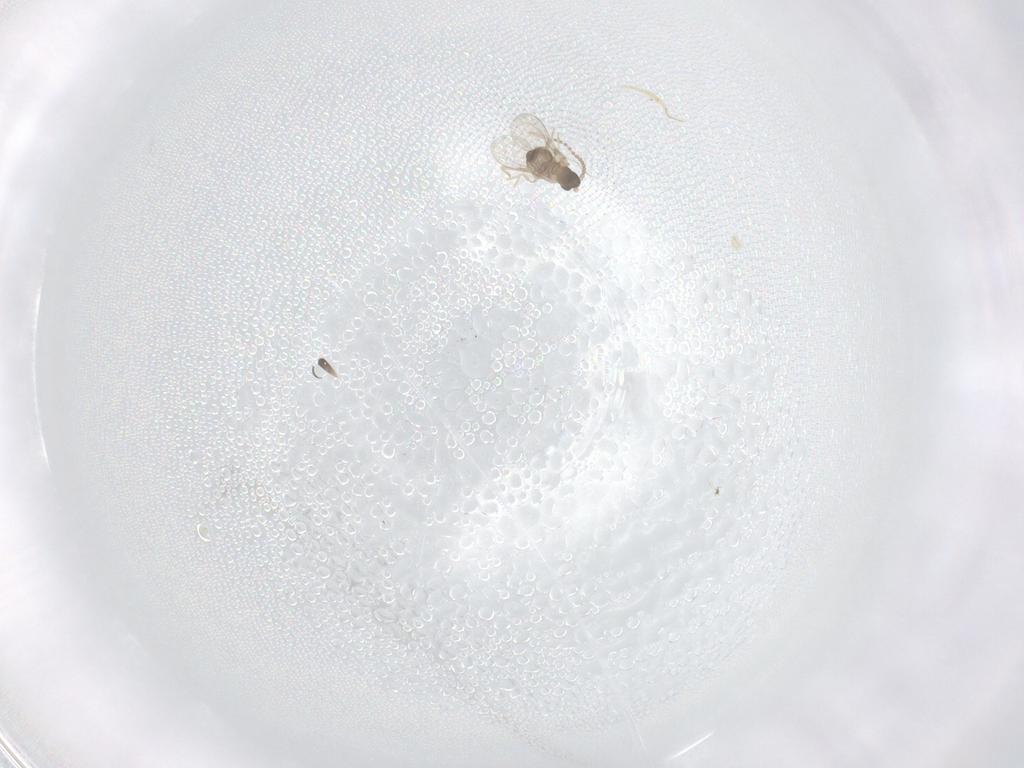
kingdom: Animalia
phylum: Arthropoda
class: Insecta
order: Diptera
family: Cecidomyiidae
